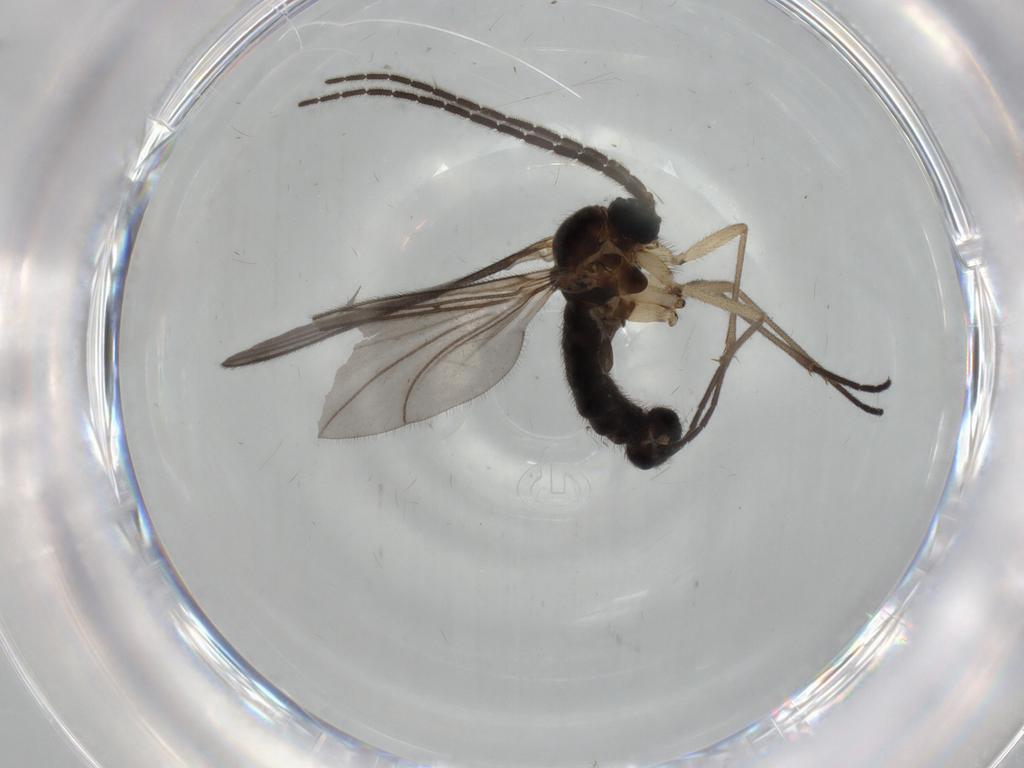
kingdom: Animalia
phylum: Arthropoda
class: Insecta
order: Diptera
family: Sciaridae
